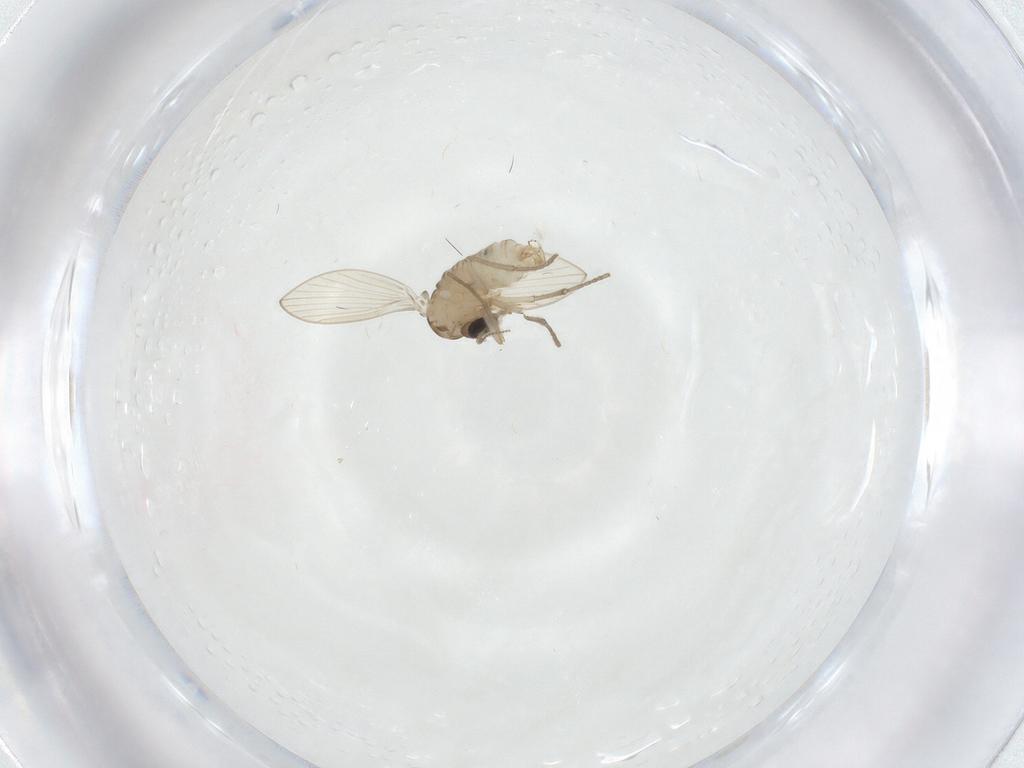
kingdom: Animalia
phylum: Arthropoda
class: Insecta
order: Diptera
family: Psychodidae
